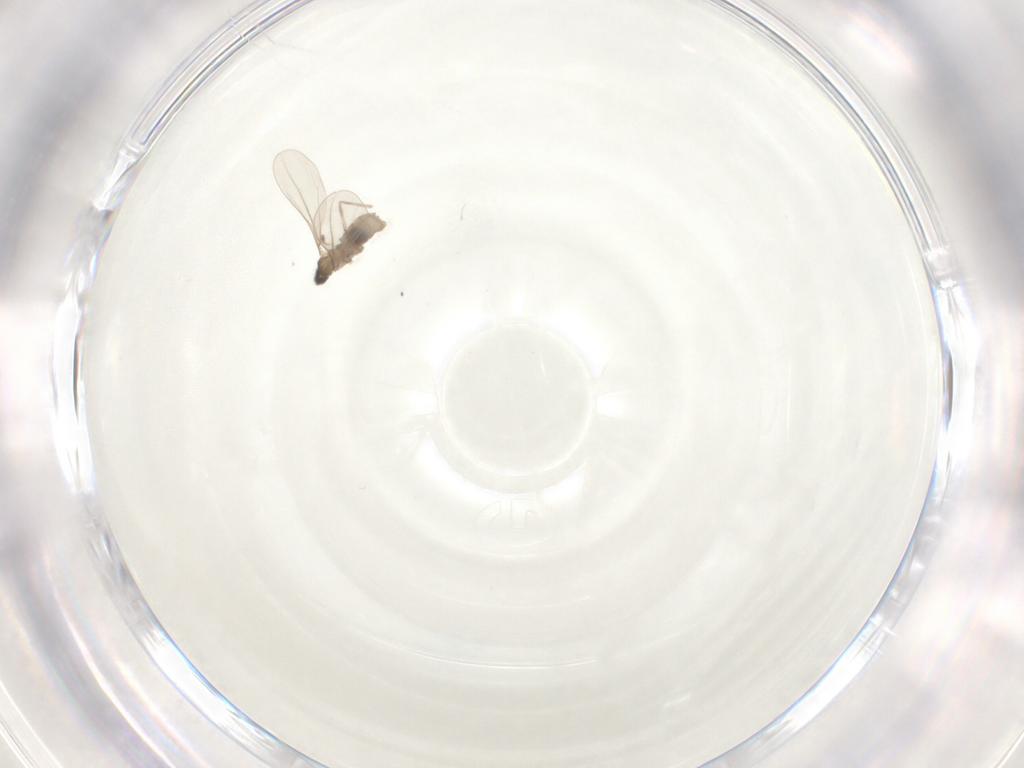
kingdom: Animalia
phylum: Arthropoda
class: Insecta
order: Diptera
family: Cecidomyiidae
